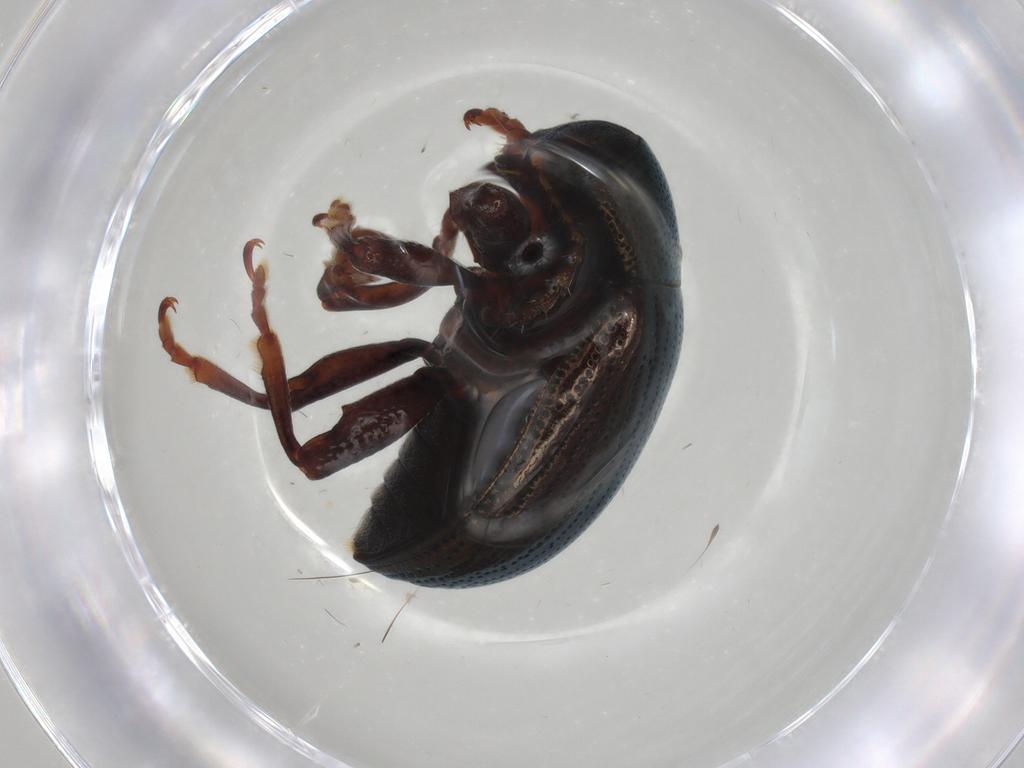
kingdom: Animalia
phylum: Arthropoda
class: Insecta
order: Coleoptera
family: Chrysomelidae
